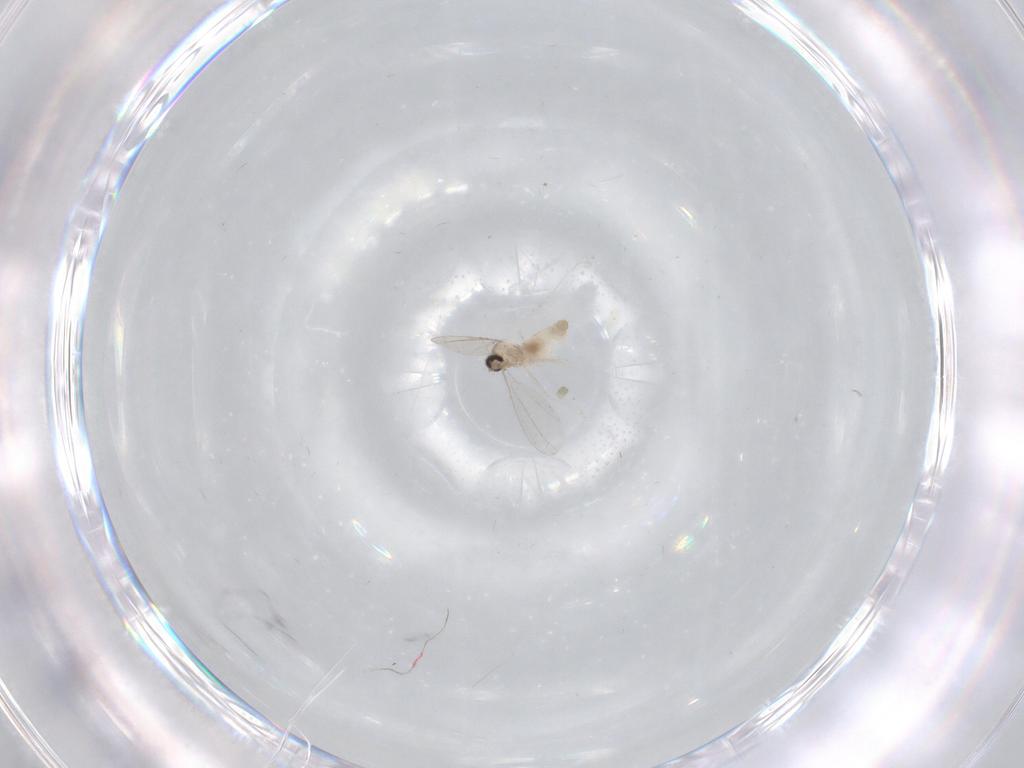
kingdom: Animalia
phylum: Arthropoda
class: Insecta
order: Diptera
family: Cecidomyiidae
